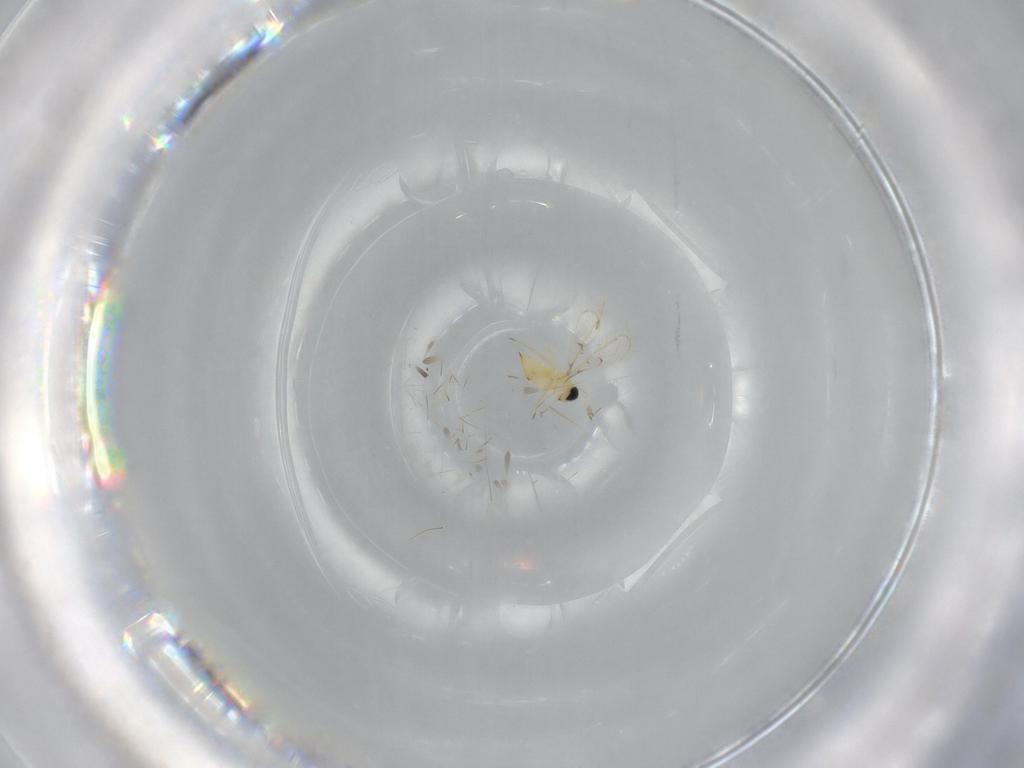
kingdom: Animalia
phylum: Arthropoda
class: Insecta
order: Hymenoptera
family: Trichogrammatidae
